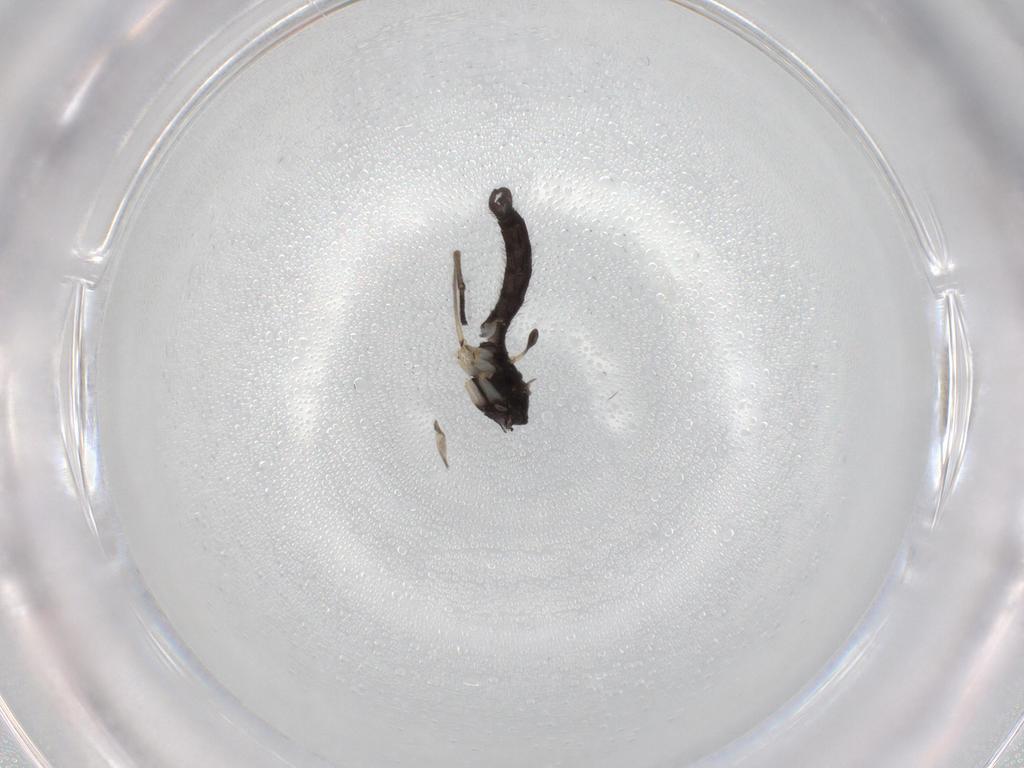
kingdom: Animalia
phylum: Arthropoda
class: Insecta
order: Diptera
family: Sciaridae
